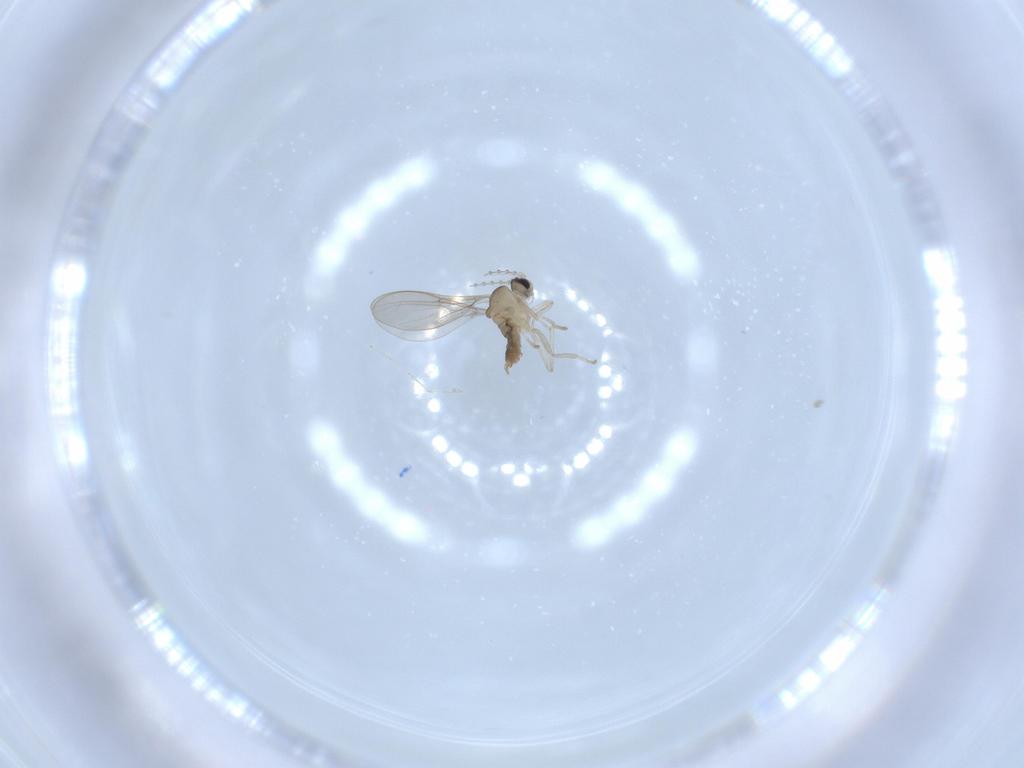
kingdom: Animalia
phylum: Arthropoda
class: Insecta
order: Diptera
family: Cecidomyiidae
